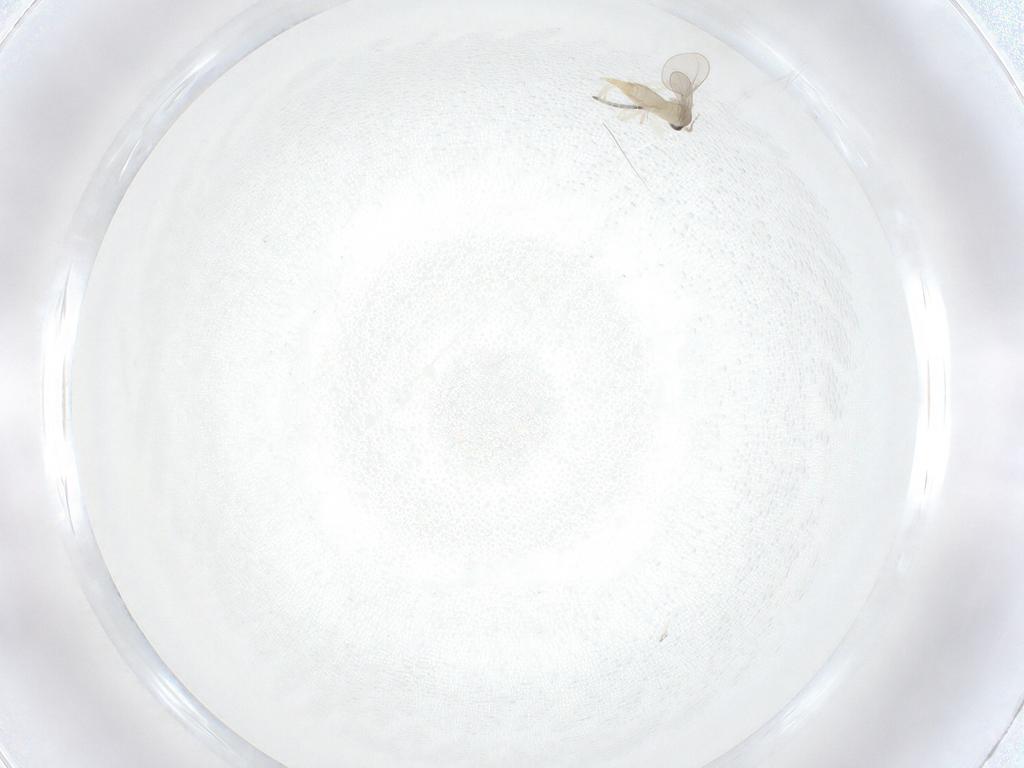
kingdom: Animalia
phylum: Arthropoda
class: Insecta
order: Diptera
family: Cecidomyiidae
